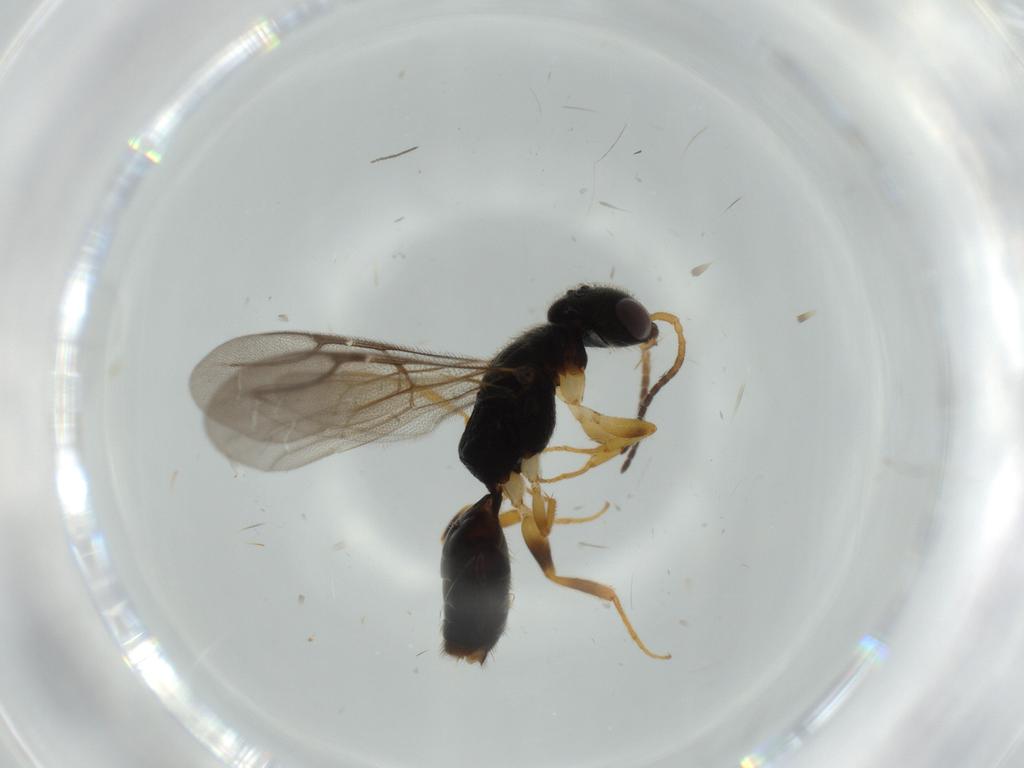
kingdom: Animalia
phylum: Arthropoda
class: Insecta
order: Hymenoptera
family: Bethylidae
